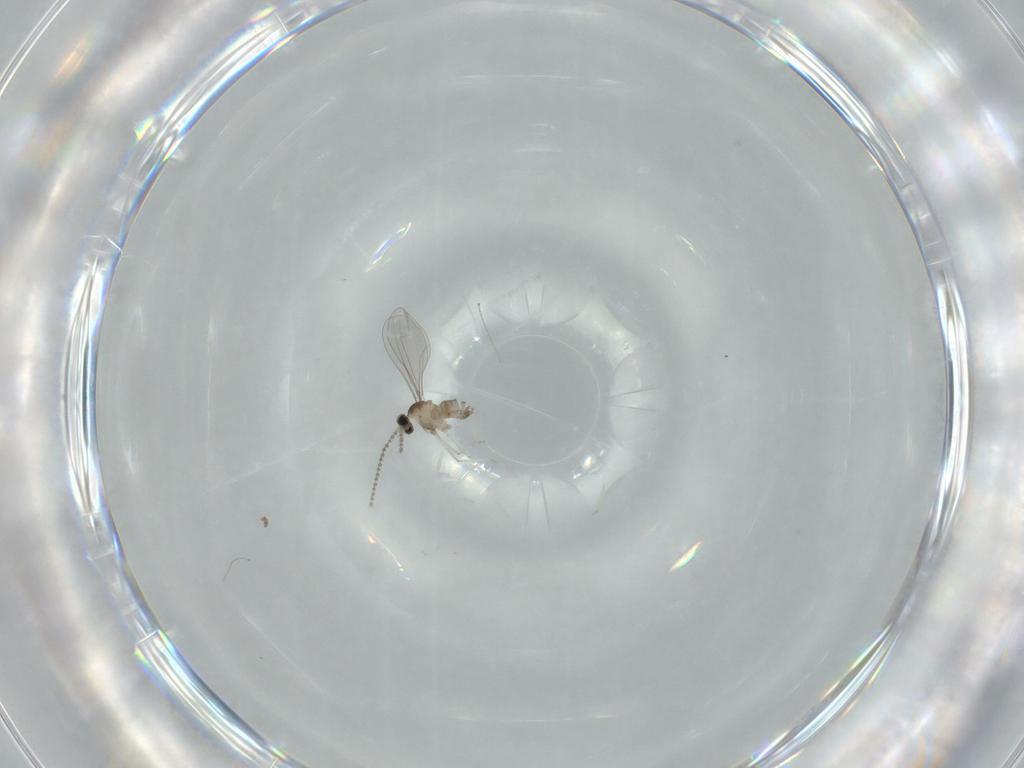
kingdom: Animalia
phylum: Arthropoda
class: Insecta
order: Diptera
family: Cecidomyiidae
